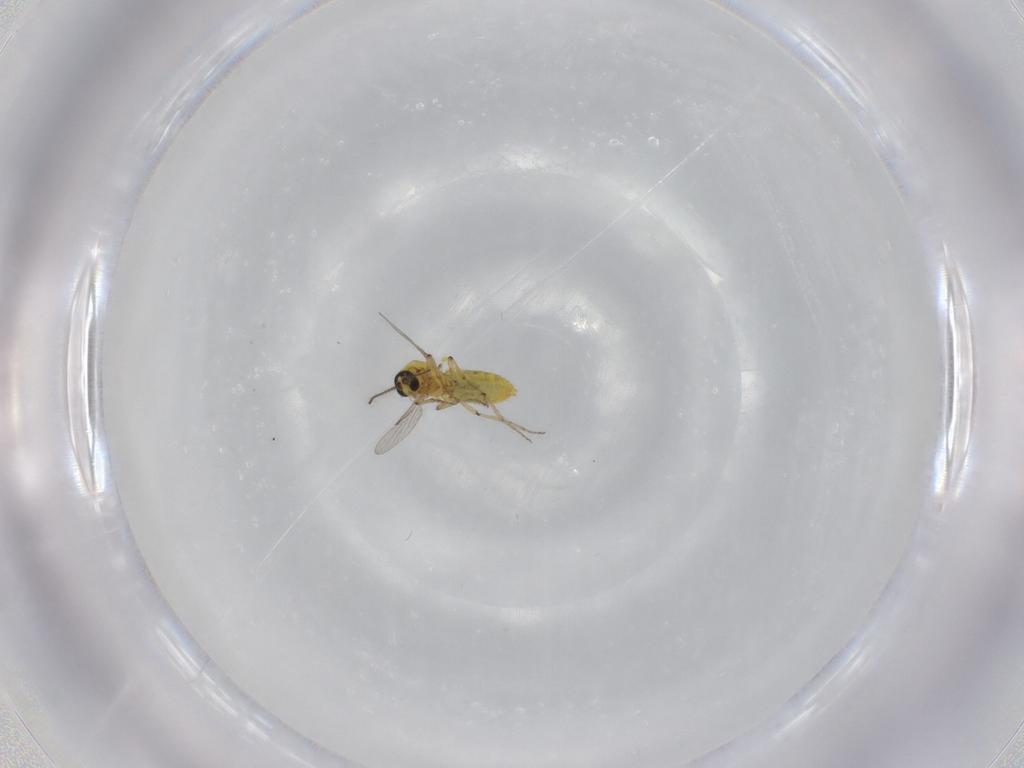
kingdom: Animalia
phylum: Arthropoda
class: Insecta
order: Diptera
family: Ceratopogonidae
